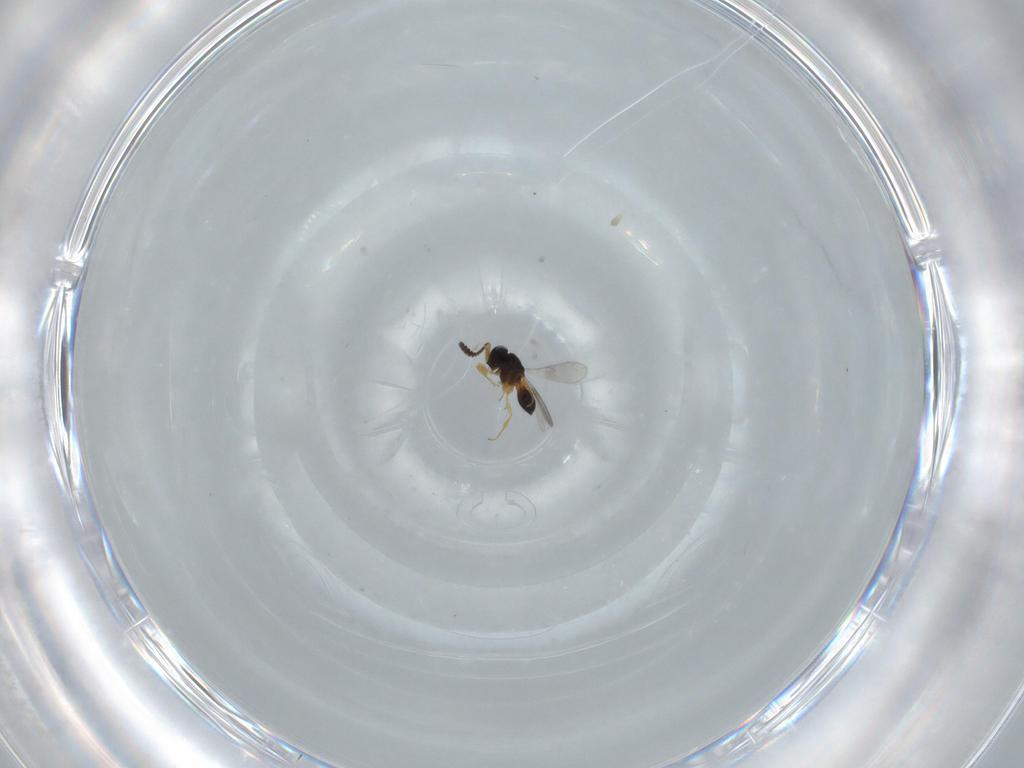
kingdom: Animalia
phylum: Arthropoda
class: Insecta
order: Hymenoptera
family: Scelionidae
